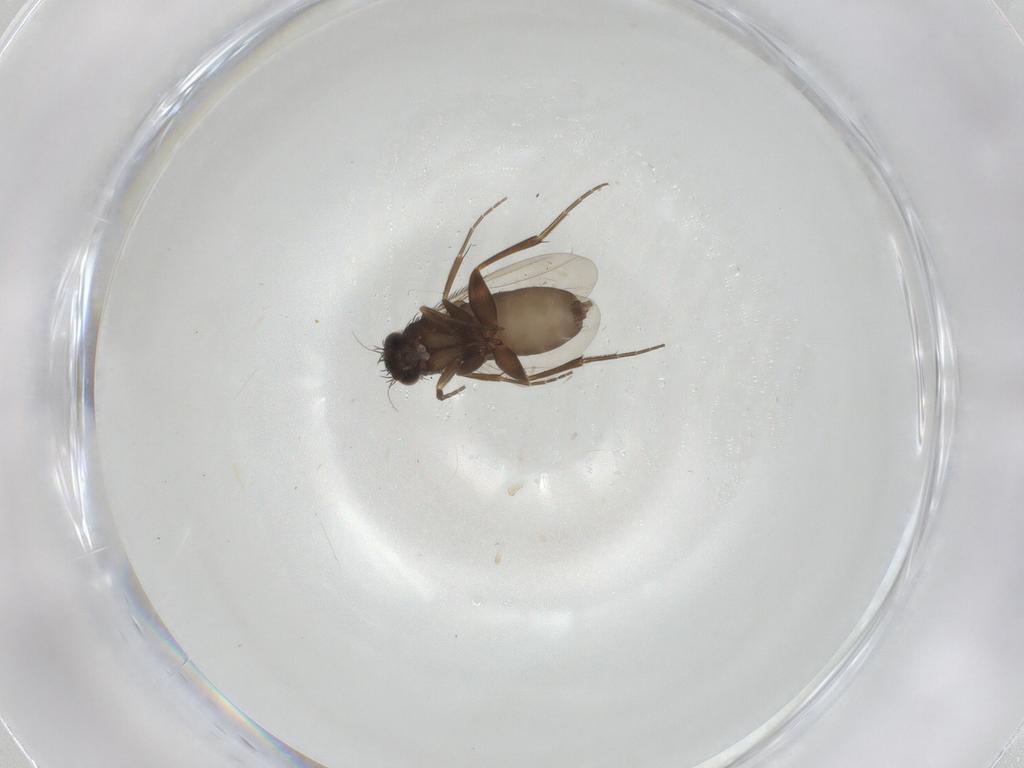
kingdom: Animalia
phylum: Arthropoda
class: Insecta
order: Diptera
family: Phoridae
